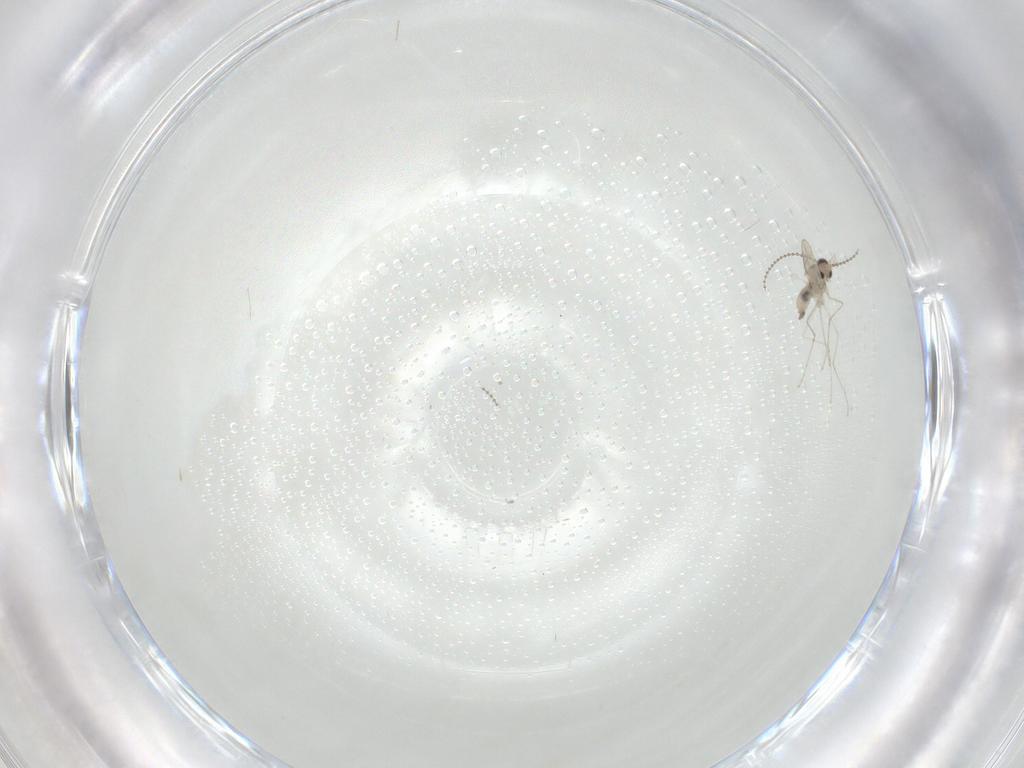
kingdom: Animalia
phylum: Arthropoda
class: Insecta
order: Diptera
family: Cecidomyiidae
